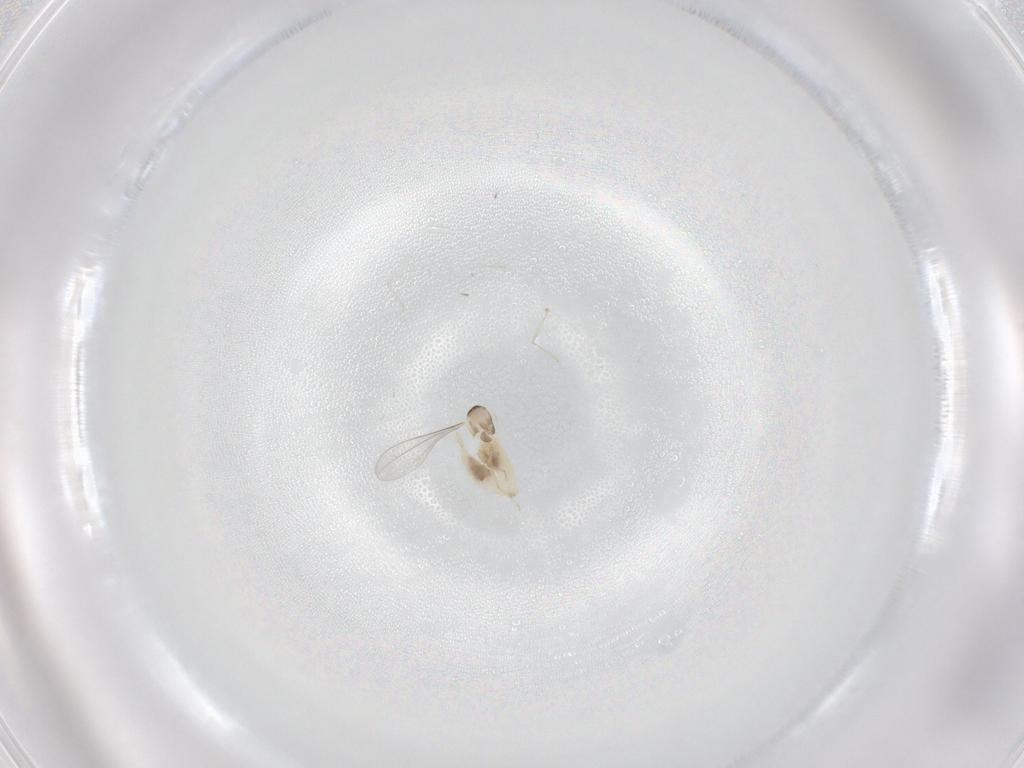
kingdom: Animalia
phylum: Arthropoda
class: Insecta
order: Diptera
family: Cecidomyiidae
